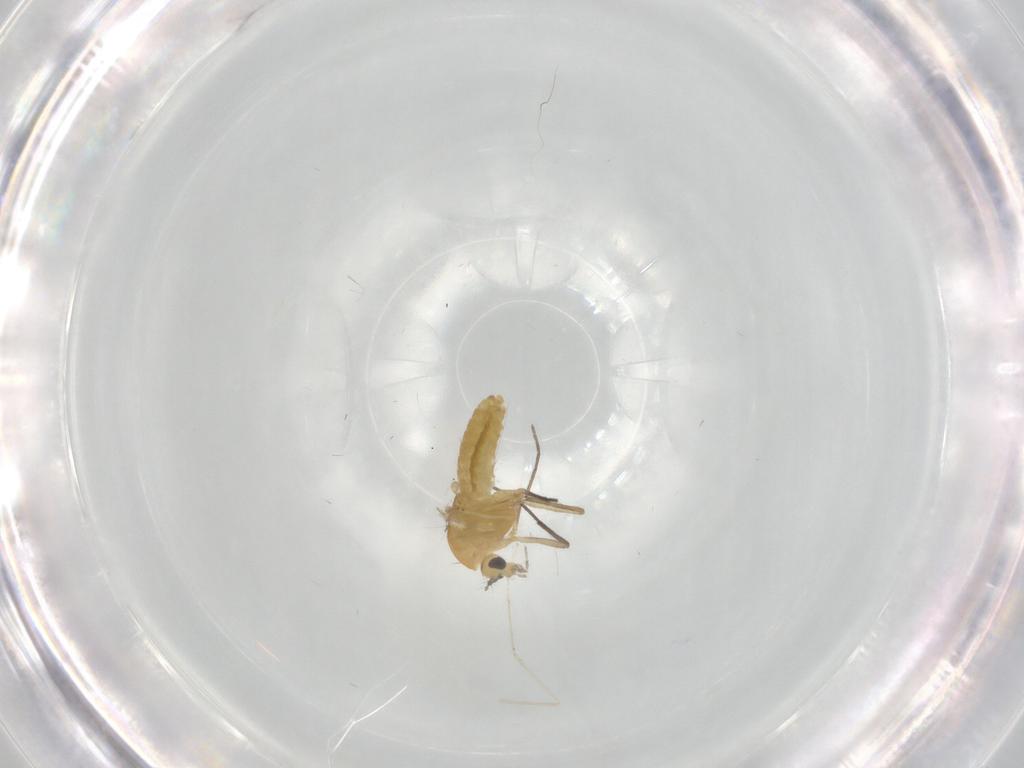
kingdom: Animalia
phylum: Arthropoda
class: Insecta
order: Diptera
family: Chironomidae
